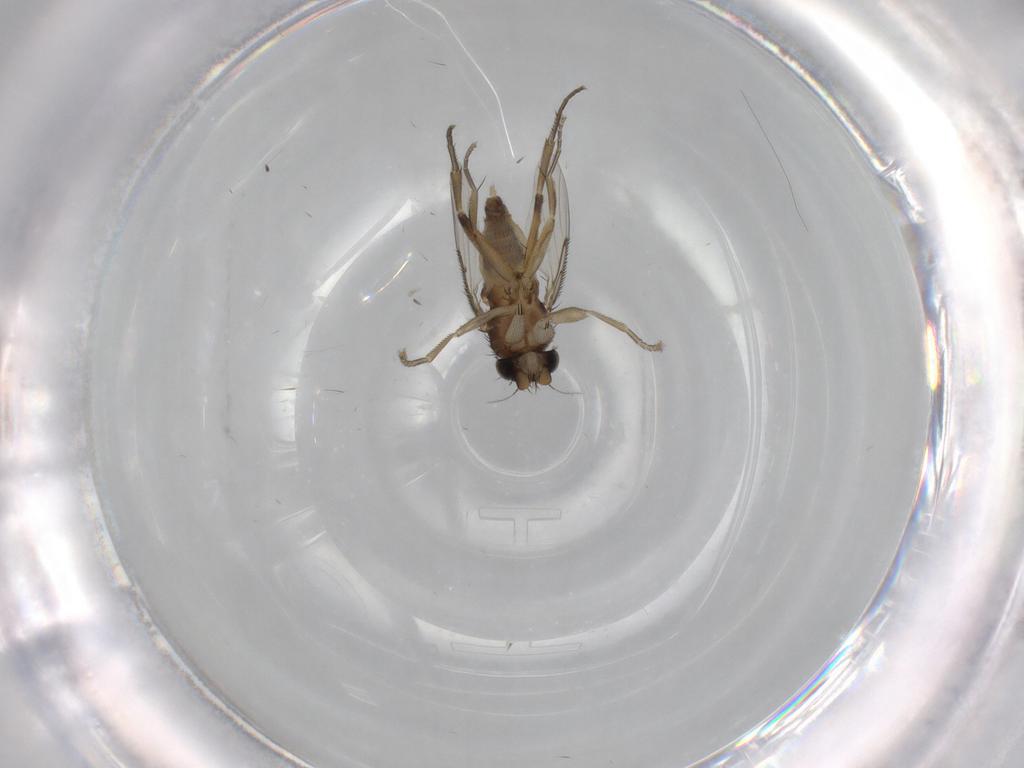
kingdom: Animalia
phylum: Arthropoda
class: Insecta
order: Diptera
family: Phoridae
